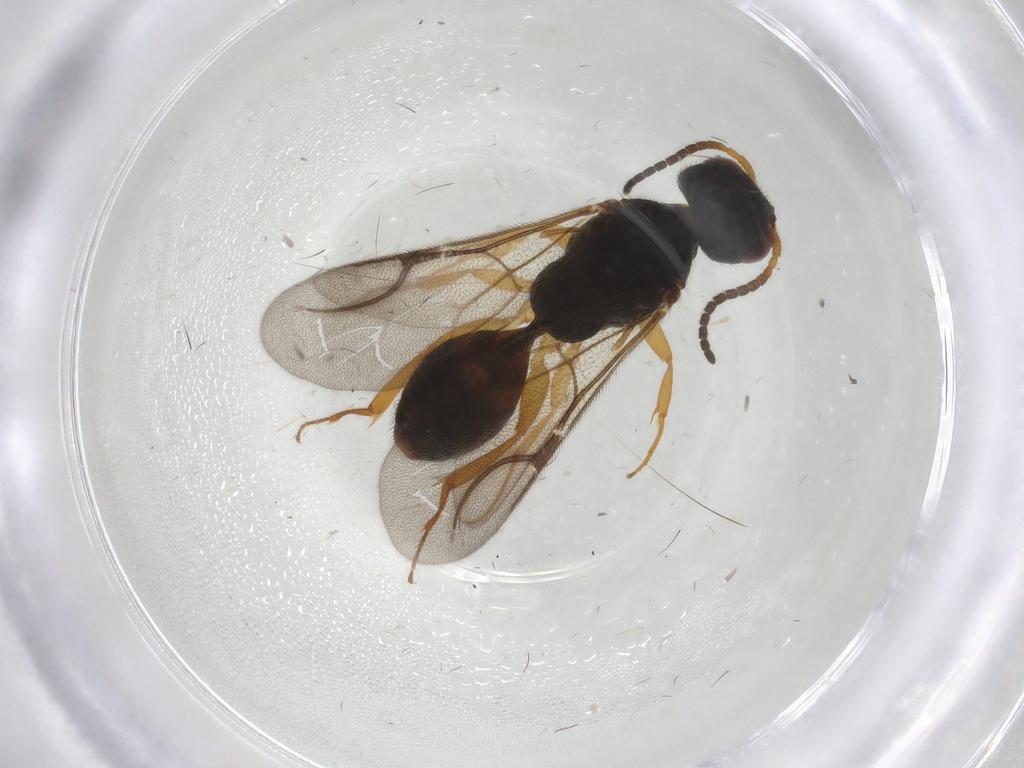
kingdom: Animalia
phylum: Arthropoda
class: Insecta
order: Hymenoptera
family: Bethylidae
